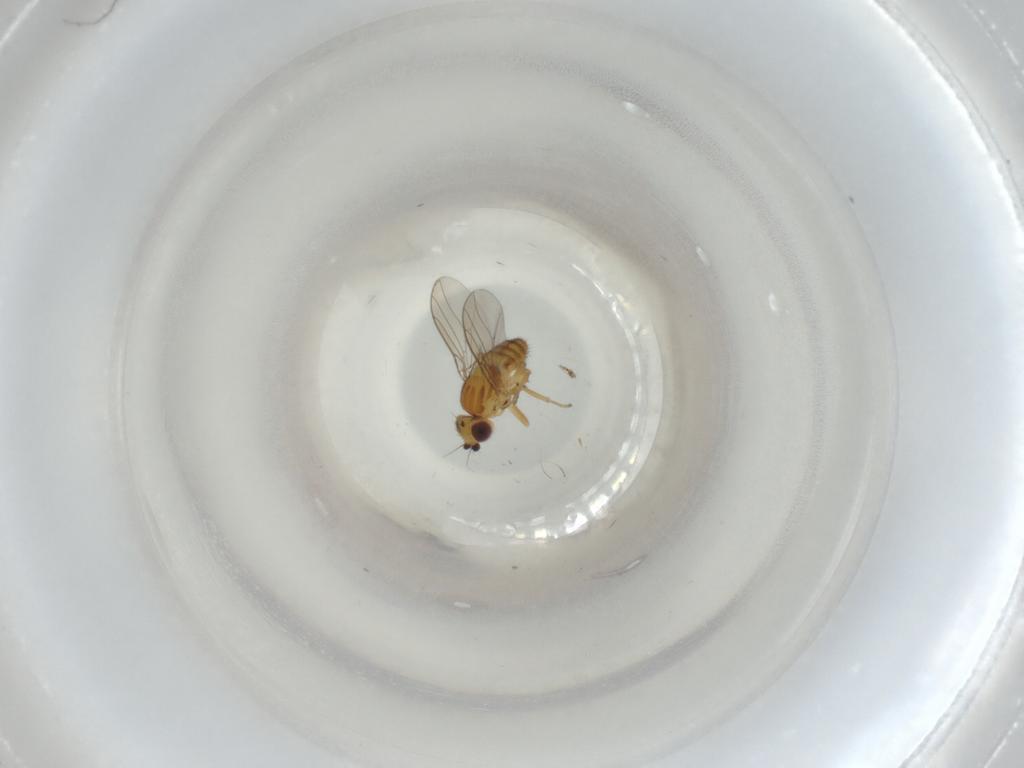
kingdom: Animalia
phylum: Arthropoda
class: Insecta
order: Diptera
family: Chloropidae
